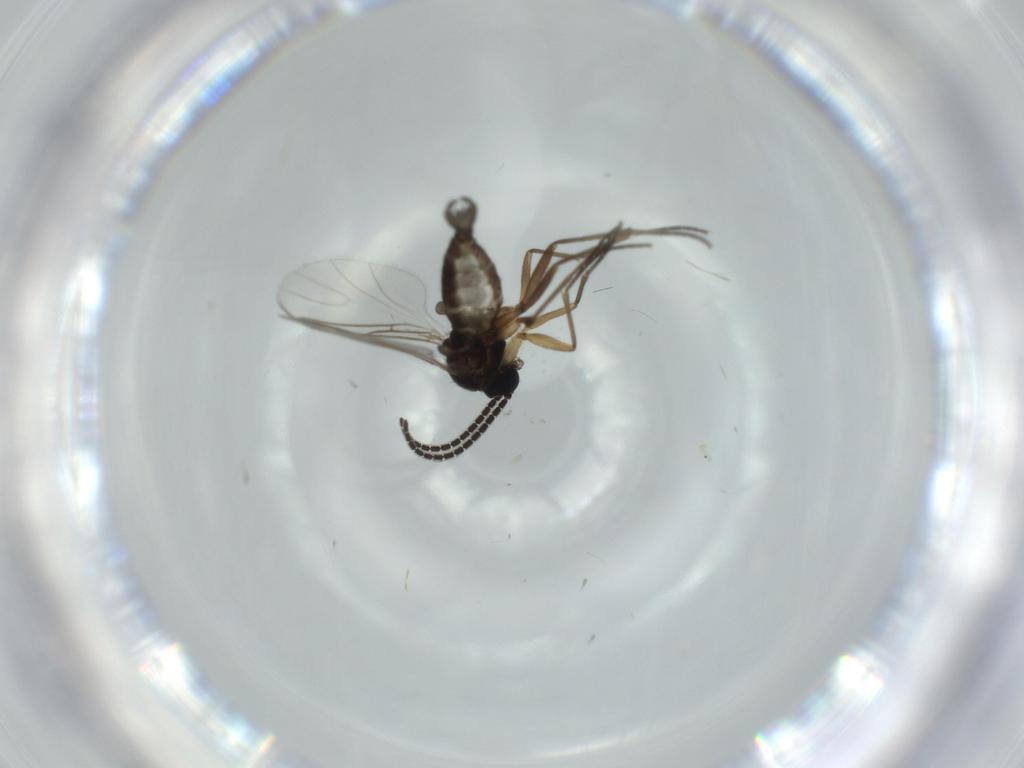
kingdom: Animalia
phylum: Arthropoda
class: Insecta
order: Diptera
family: Sciaridae
